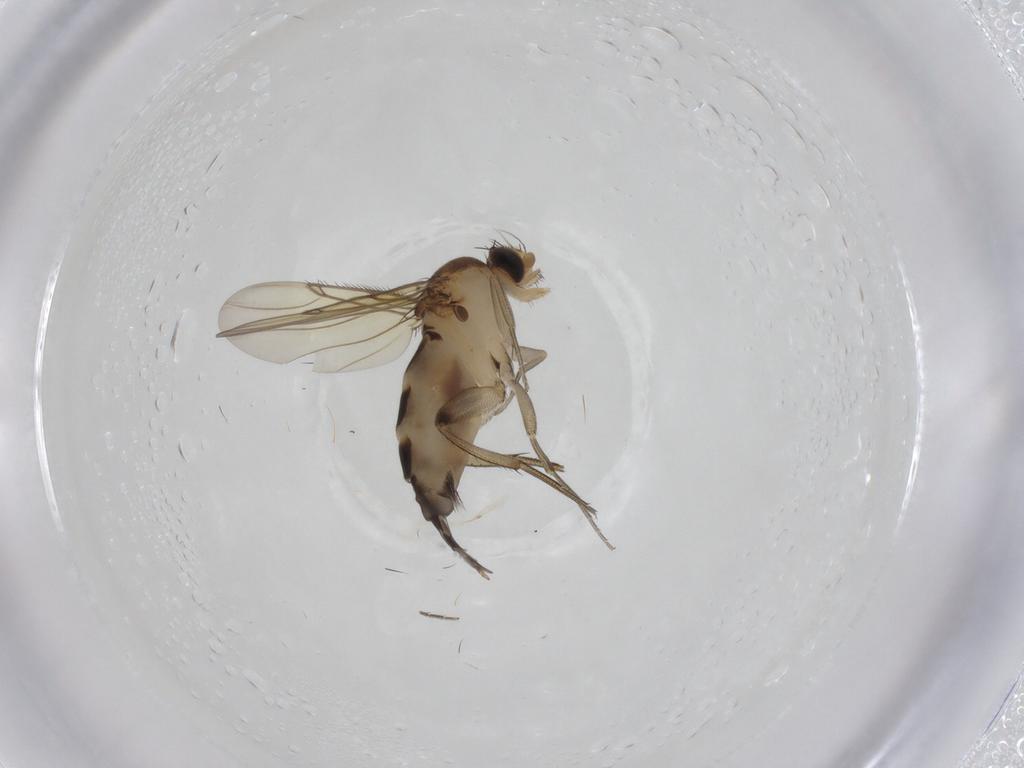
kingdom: Animalia
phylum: Arthropoda
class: Insecta
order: Diptera
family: Phoridae
